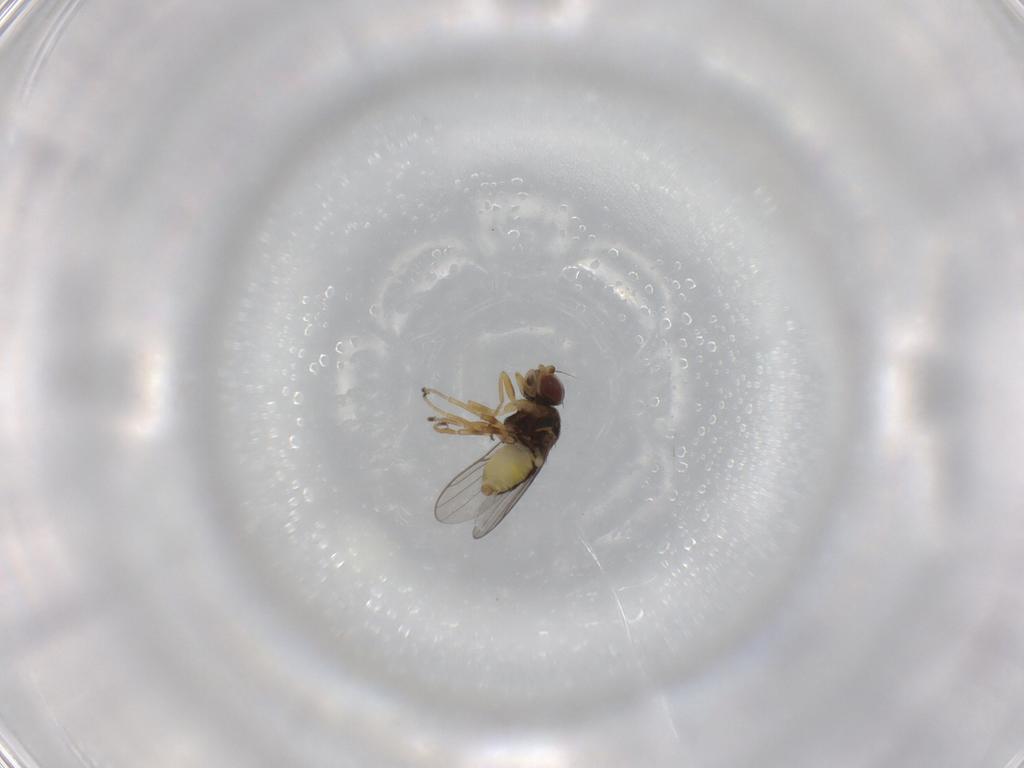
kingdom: Animalia
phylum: Arthropoda
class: Insecta
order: Diptera
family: Chloropidae
